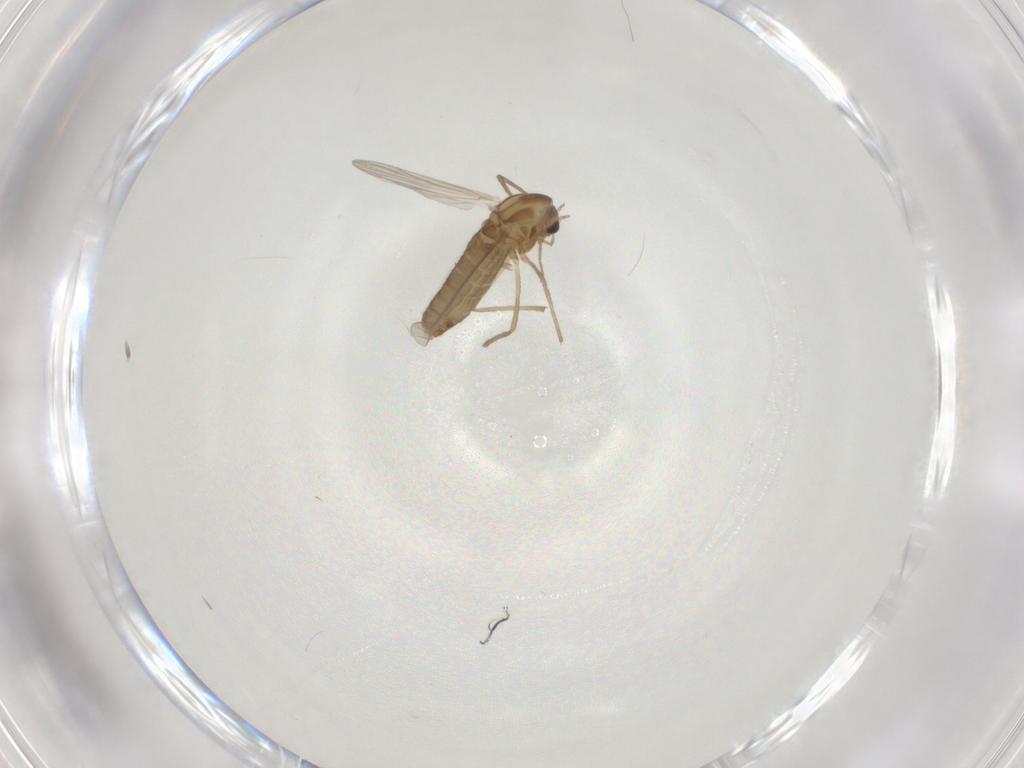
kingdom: Animalia
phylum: Arthropoda
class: Insecta
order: Diptera
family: Chironomidae
